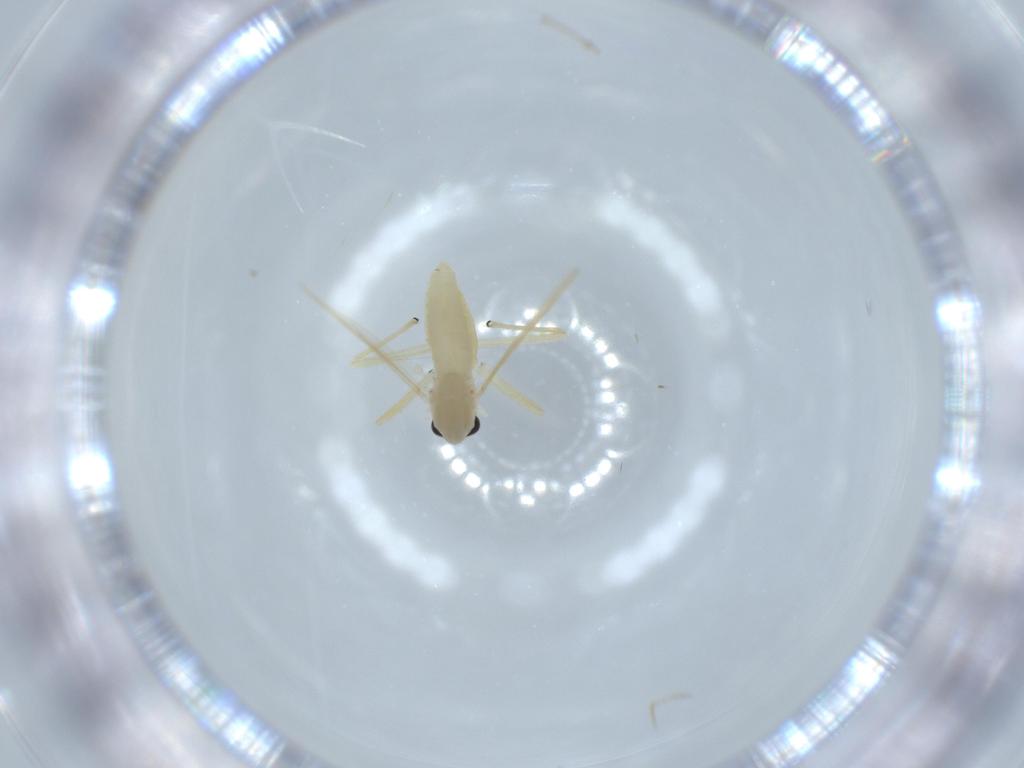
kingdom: Animalia
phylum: Arthropoda
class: Insecta
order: Diptera
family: Chironomidae
